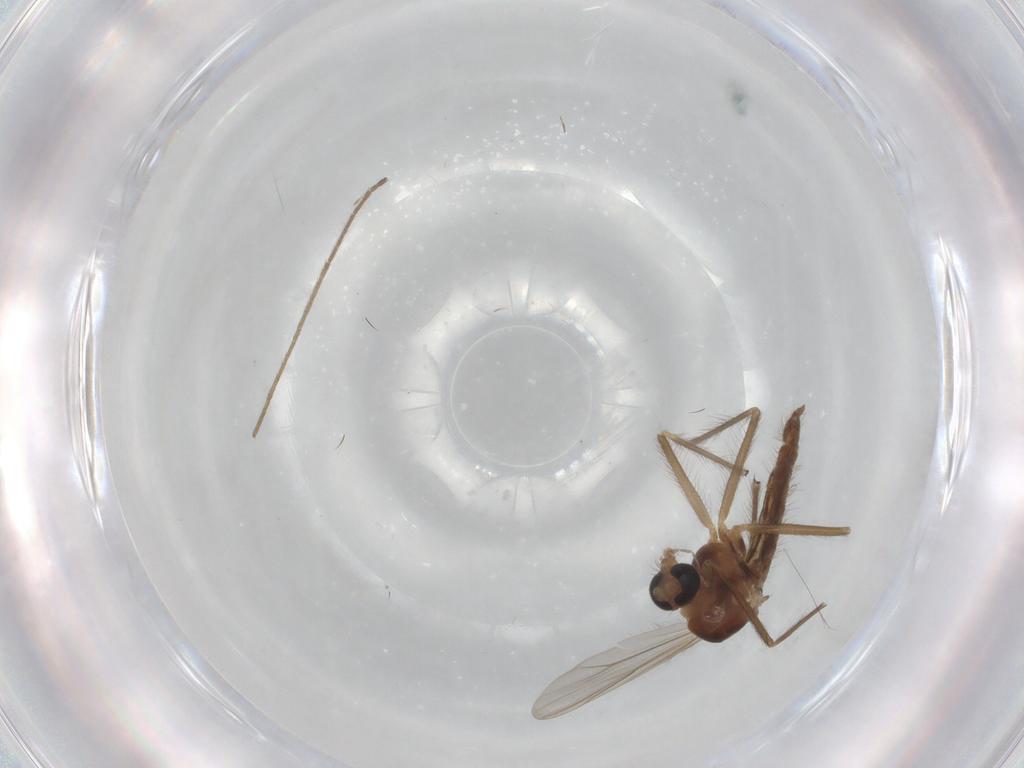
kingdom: Animalia
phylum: Arthropoda
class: Insecta
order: Diptera
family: Chironomidae
